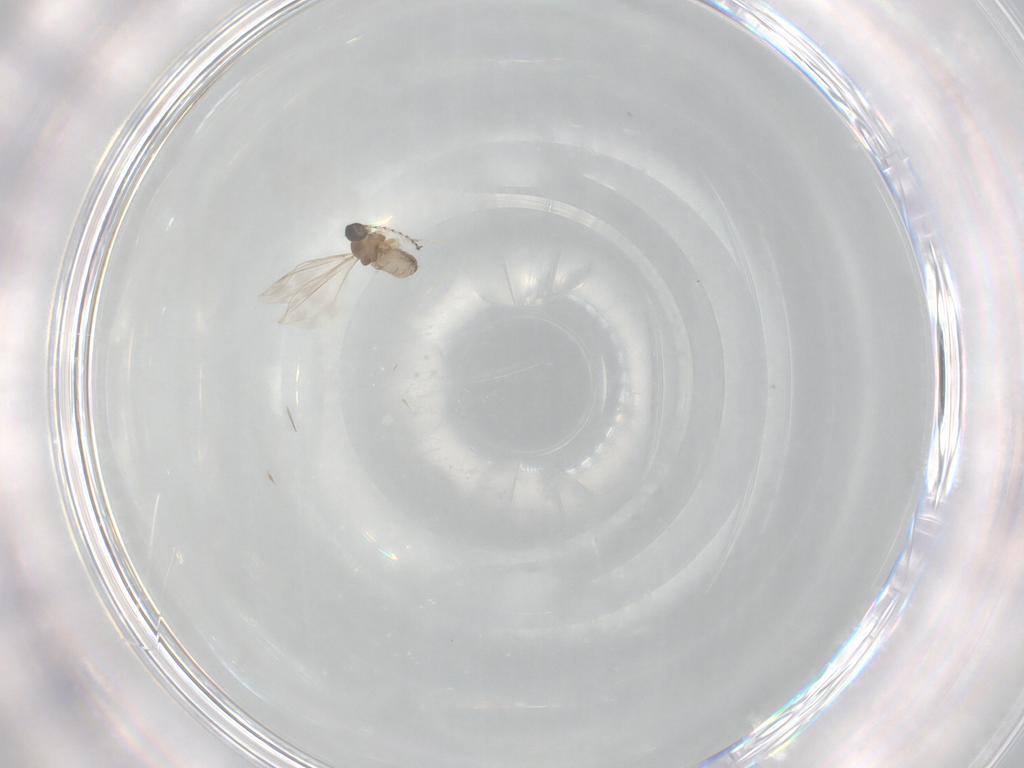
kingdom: Animalia
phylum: Arthropoda
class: Insecta
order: Diptera
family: Cecidomyiidae
